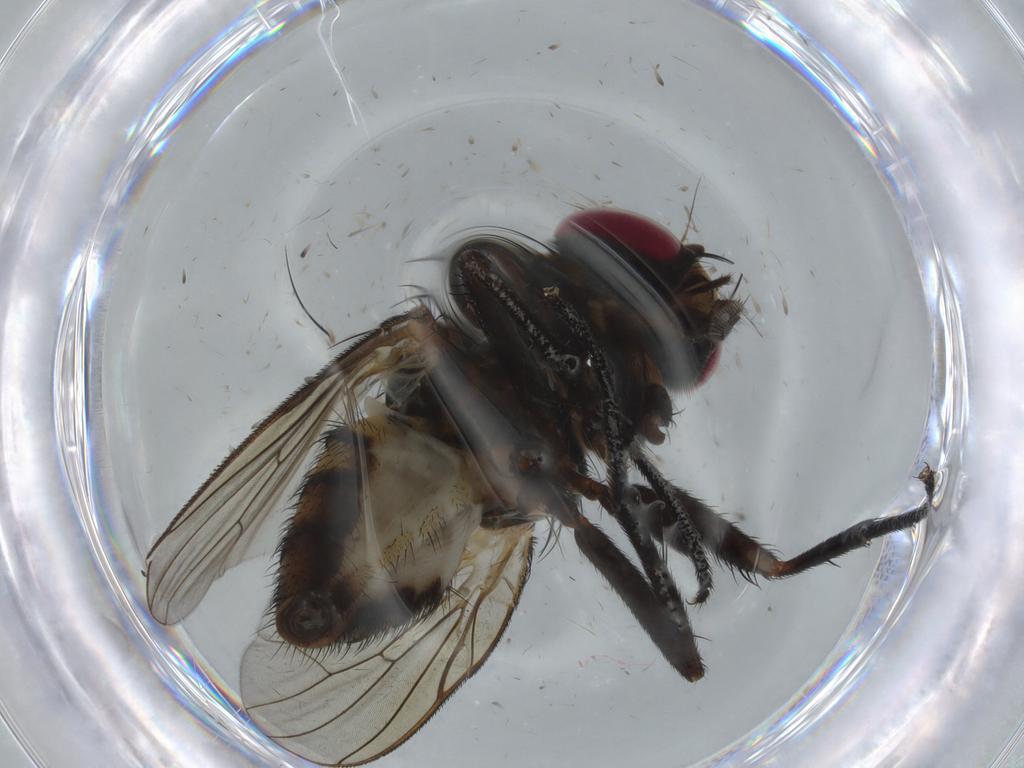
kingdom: Animalia
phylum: Arthropoda
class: Insecta
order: Diptera
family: Fannia
